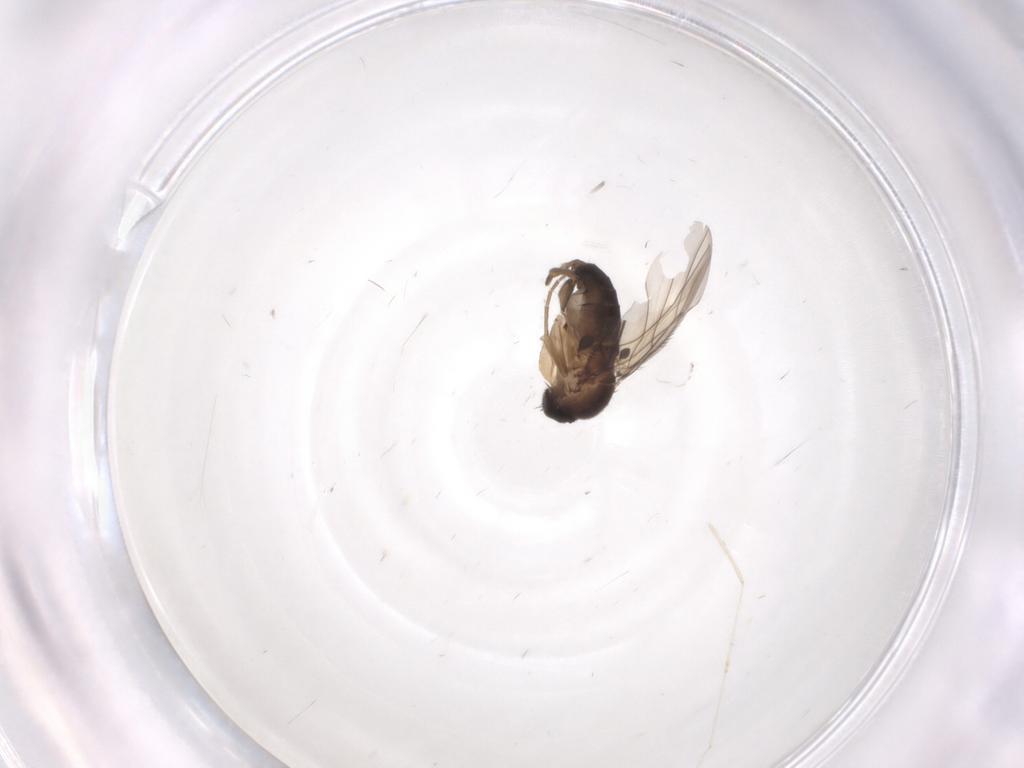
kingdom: Animalia
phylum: Arthropoda
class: Insecta
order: Diptera
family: Phoridae
